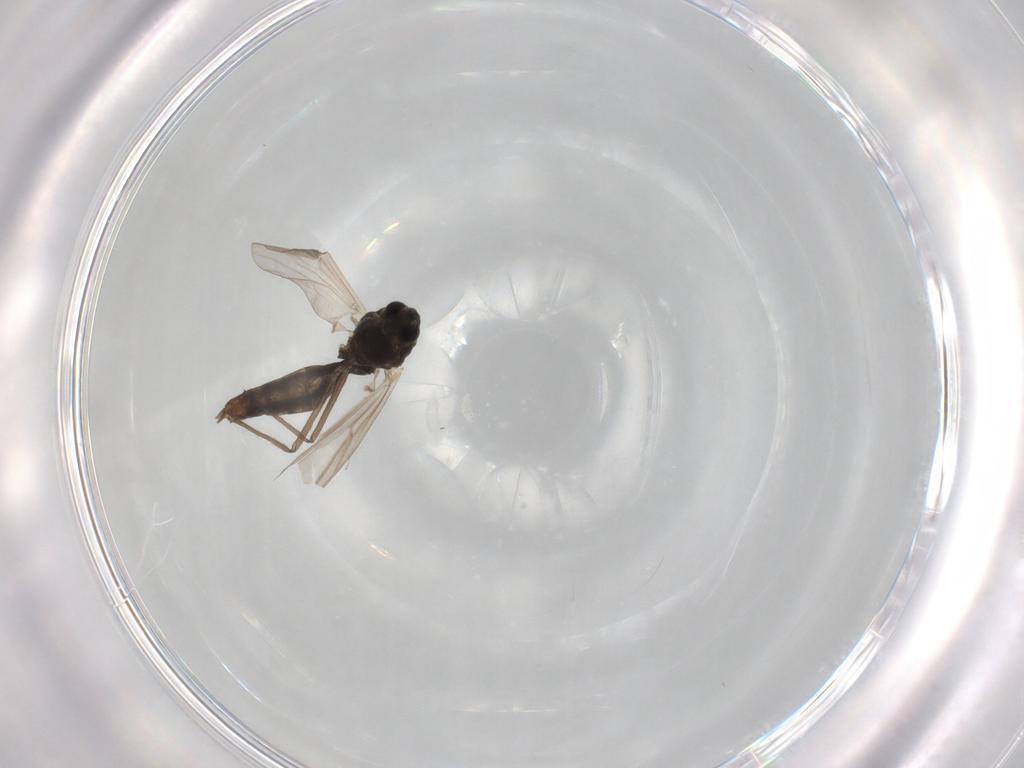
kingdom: Animalia
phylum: Arthropoda
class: Insecta
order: Diptera
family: Chironomidae
